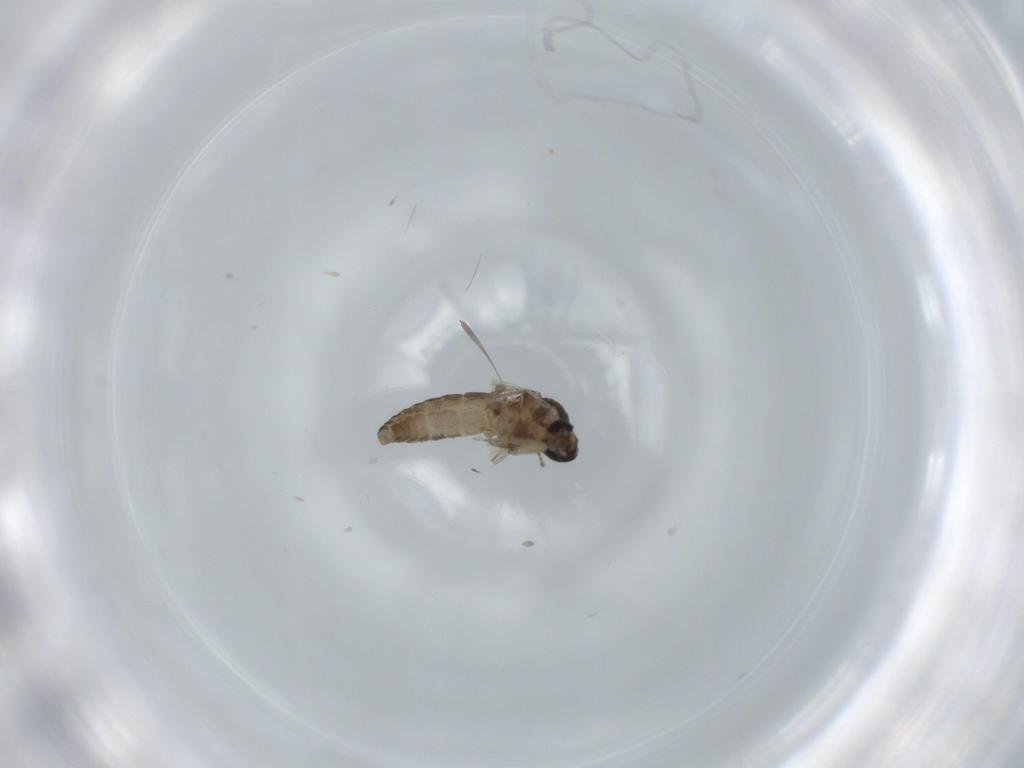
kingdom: Animalia
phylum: Arthropoda
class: Insecta
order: Diptera
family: Ceratopogonidae
